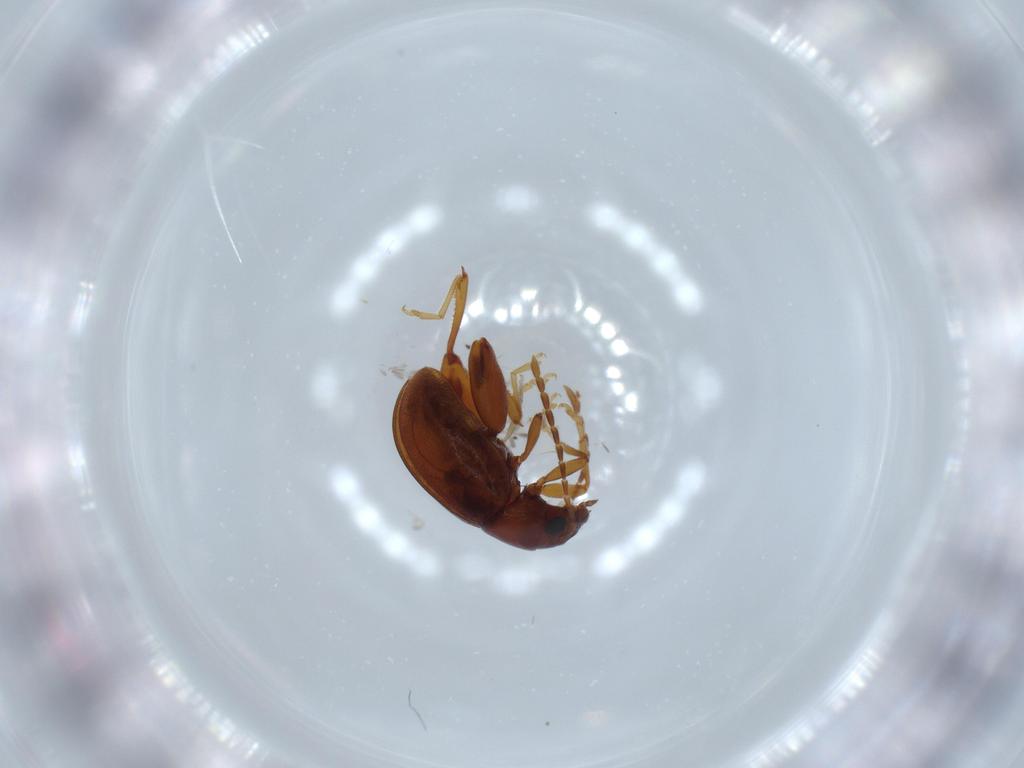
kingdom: Animalia
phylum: Arthropoda
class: Insecta
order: Coleoptera
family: Chrysomelidae
